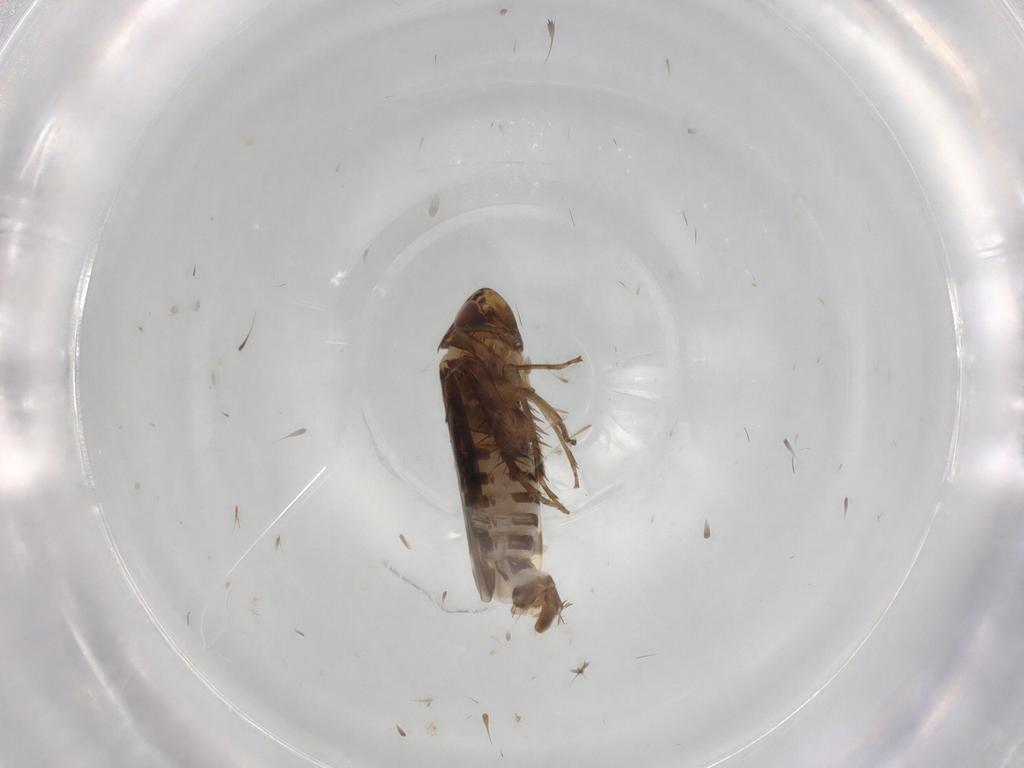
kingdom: Animalia
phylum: Arthropoda
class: Insecta
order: Hemiptera
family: Cicadellidae
